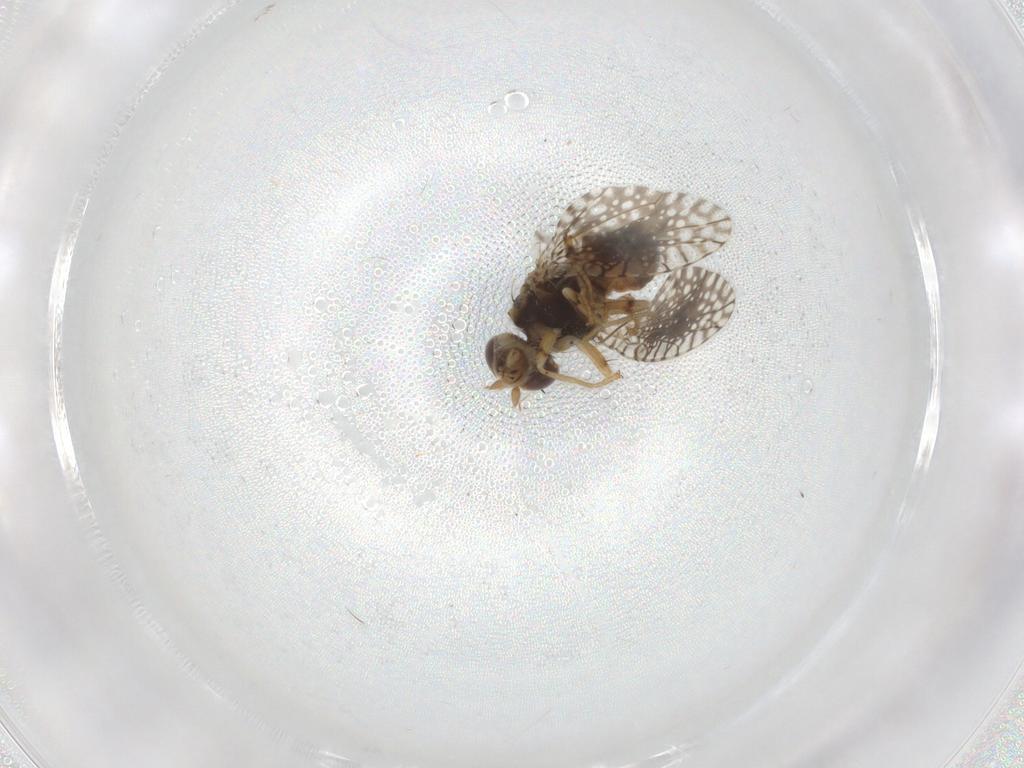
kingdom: Animalia
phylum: Arthropoda
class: Insecta
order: Diptera
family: Tephritidae
